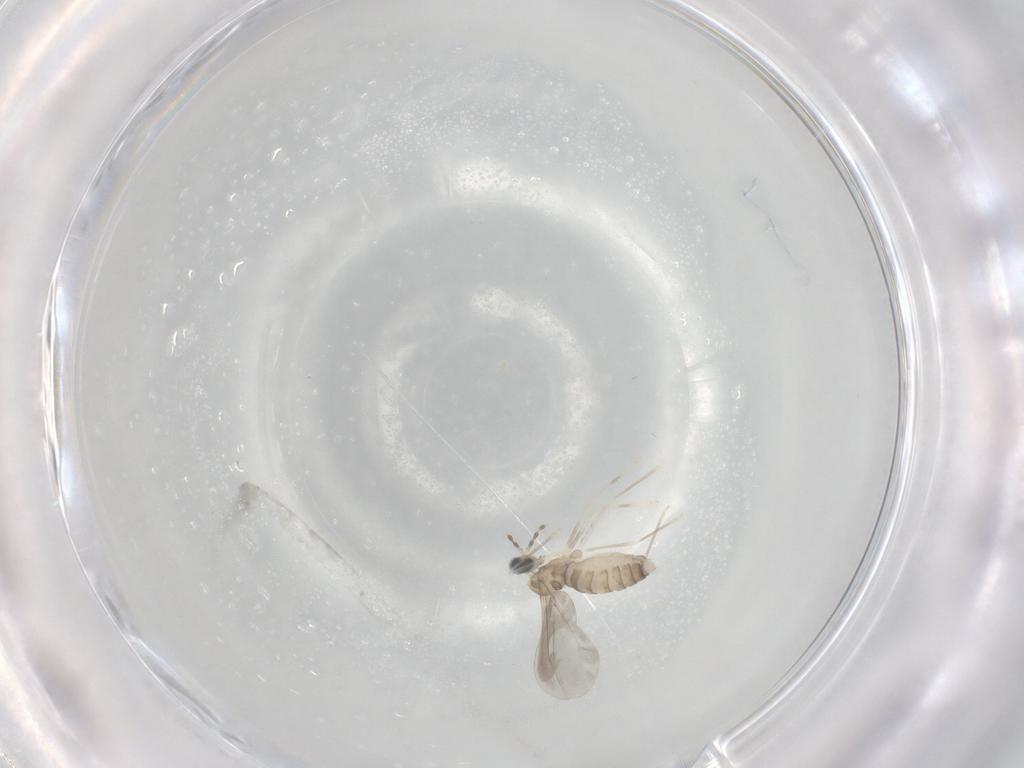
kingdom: Animalia
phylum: Arthropoda
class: Insecta
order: Diptera
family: Cecidomyiidae
